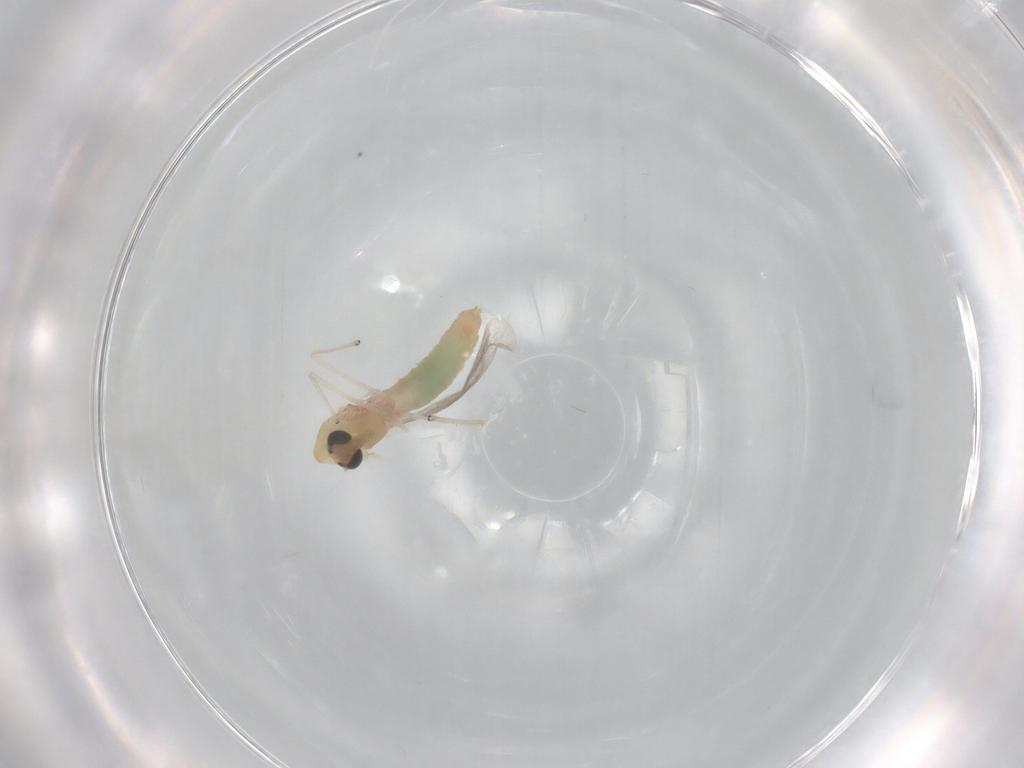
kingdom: Animalia
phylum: Arthropoda
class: Insecta
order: Diptera
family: Chironomidae
